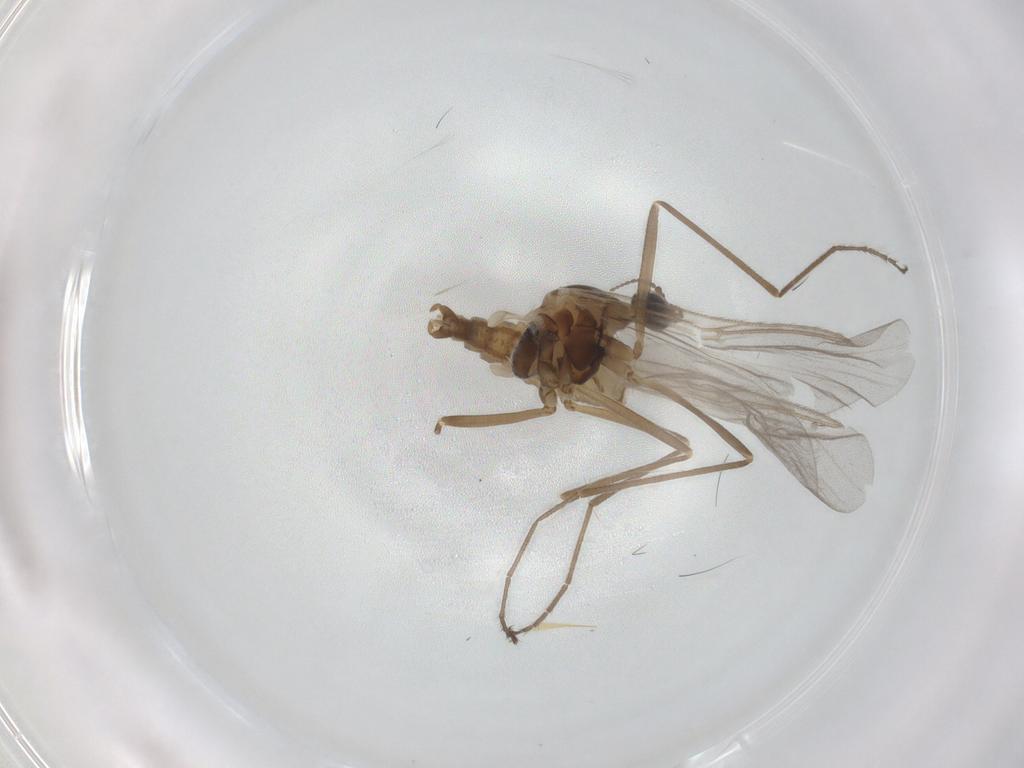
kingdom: Animalia
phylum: Arthropoda
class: Insecta
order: Diptera
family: Cecidomyiidae
